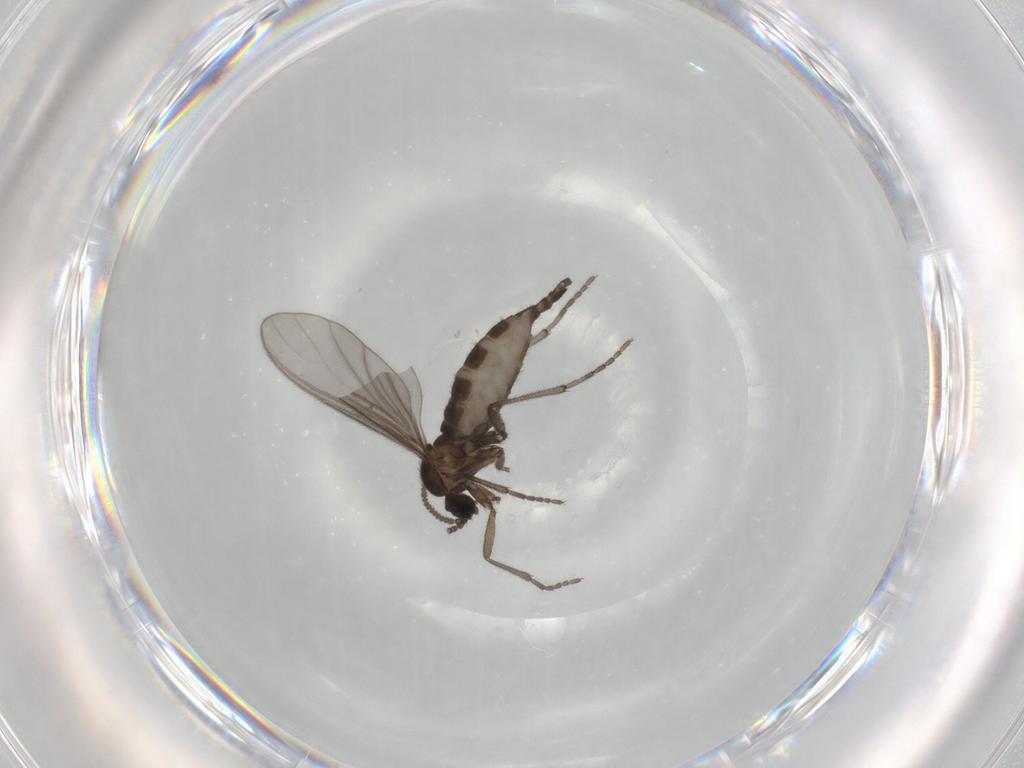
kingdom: Animalia
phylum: Arthropoda
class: Insecta
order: Diptera
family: Sciaridae
